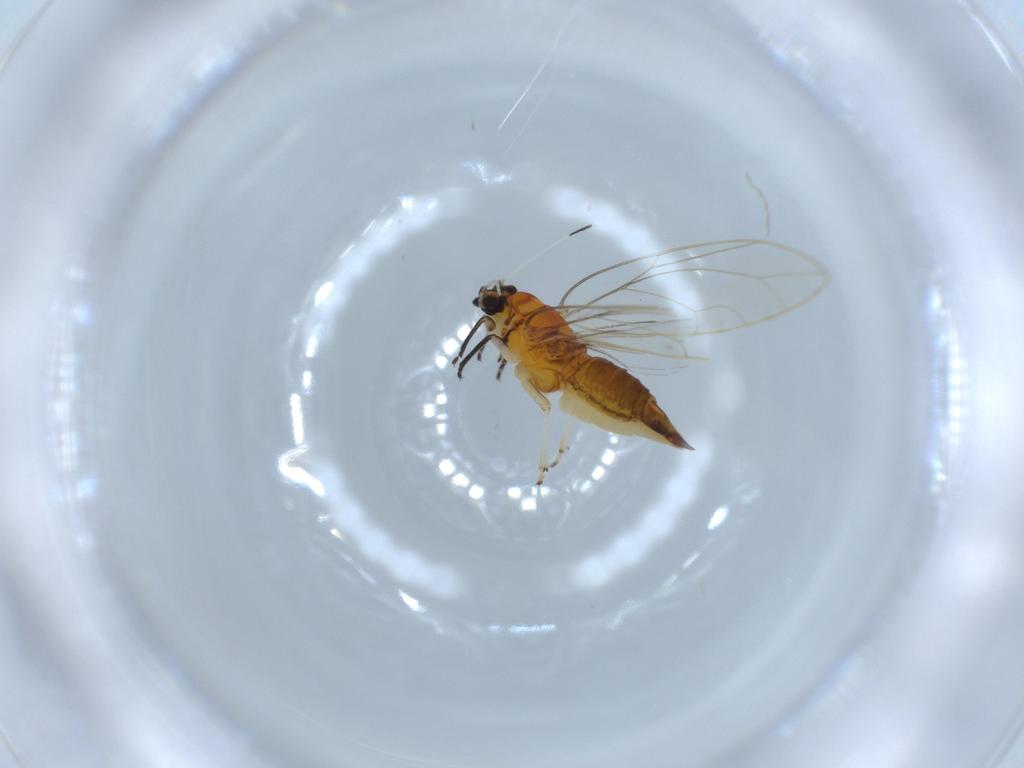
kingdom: Animalia
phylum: Arthropoda
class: Insecta
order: Hemiptera
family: Triozidae
